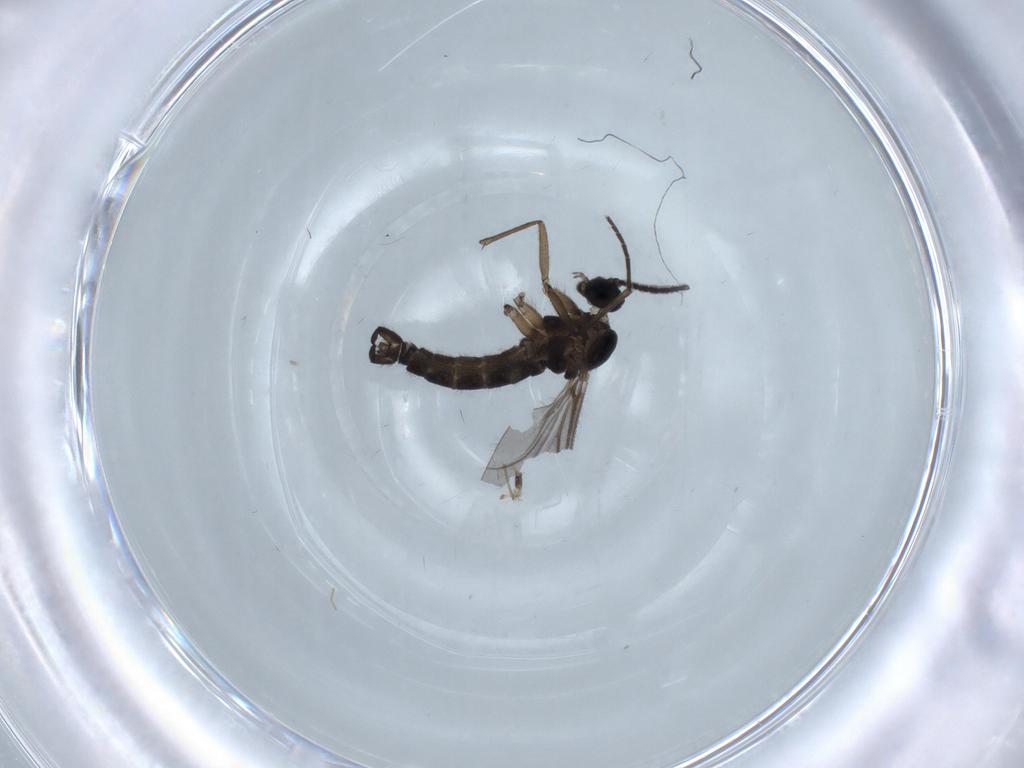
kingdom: Animalia
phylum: Arthropoda
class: Insecta
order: Diptera
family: Sciaridae
